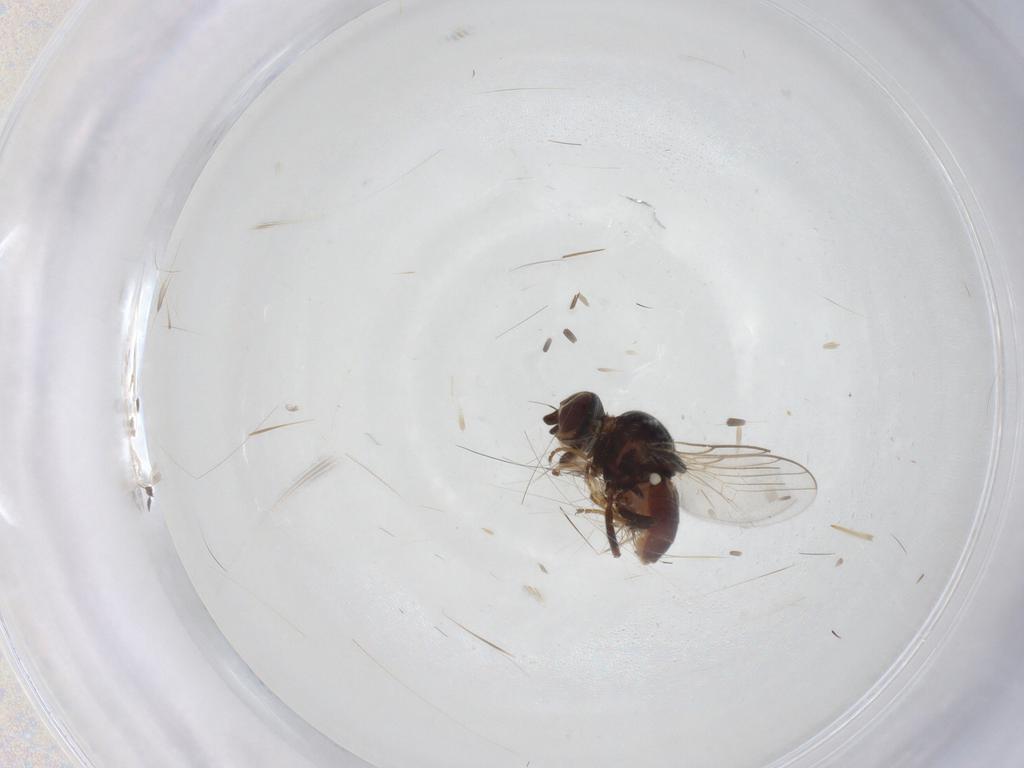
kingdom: Animalia
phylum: Arthropoda
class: Insecta
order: Diptera
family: Chloropidae
